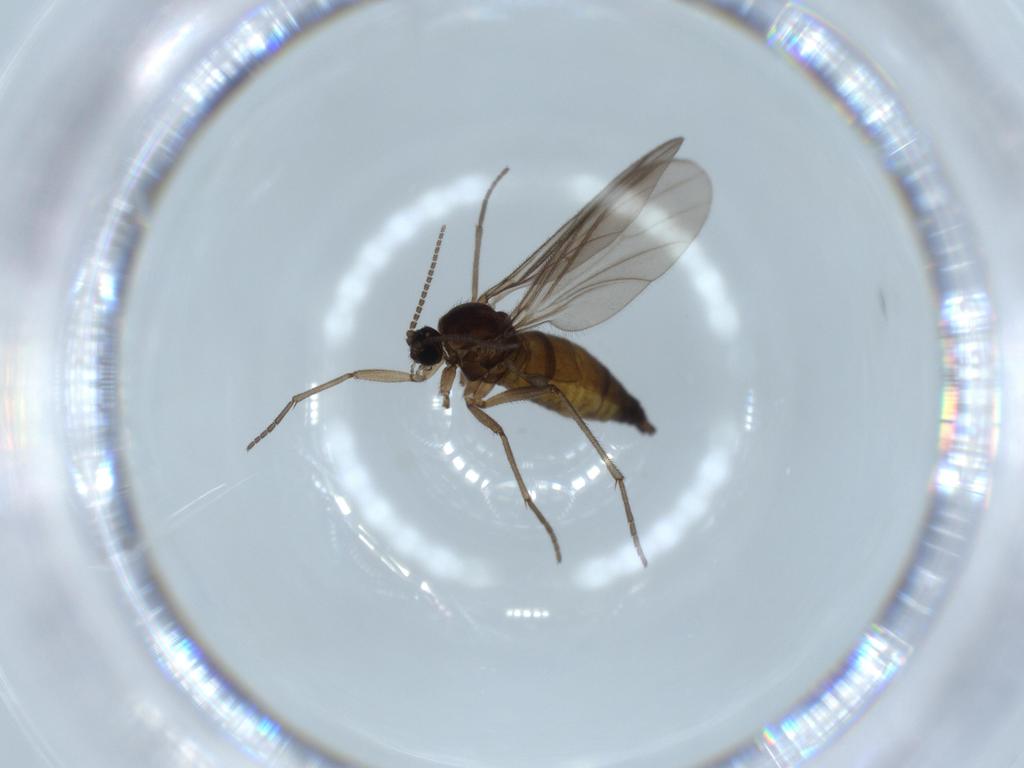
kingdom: Animalia
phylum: Arthropoda
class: Insecta
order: Diptera
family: Sciaridae
